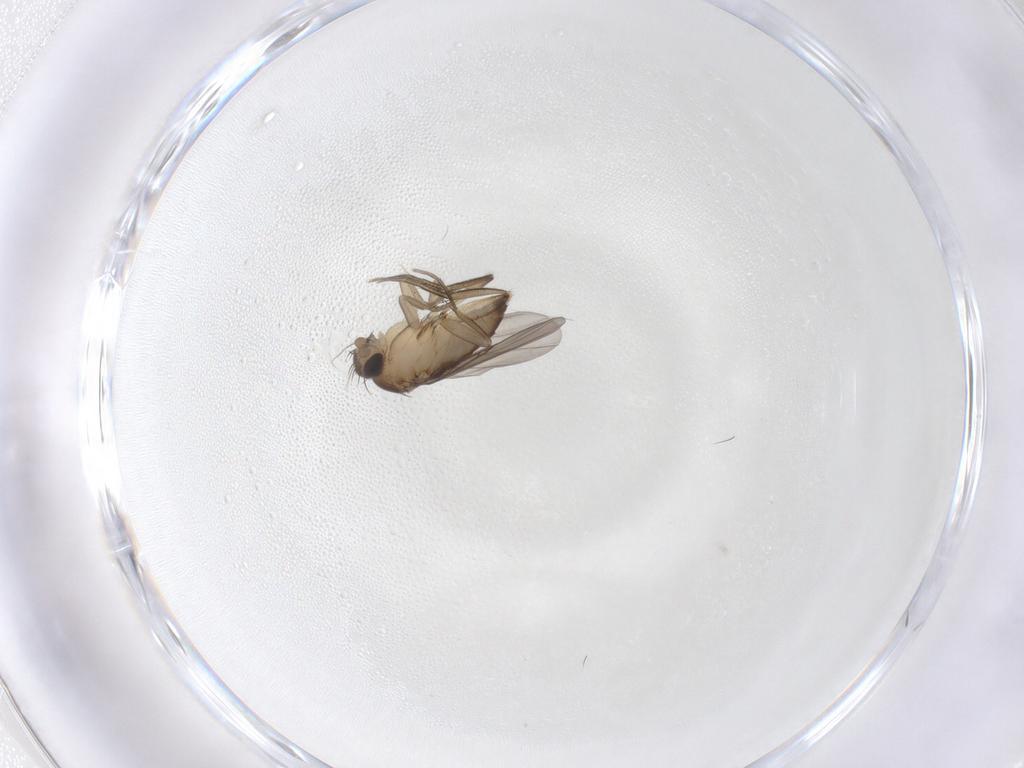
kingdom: Animalia
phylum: Arthropoda
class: Insecta
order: Diptera
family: Phoridae
